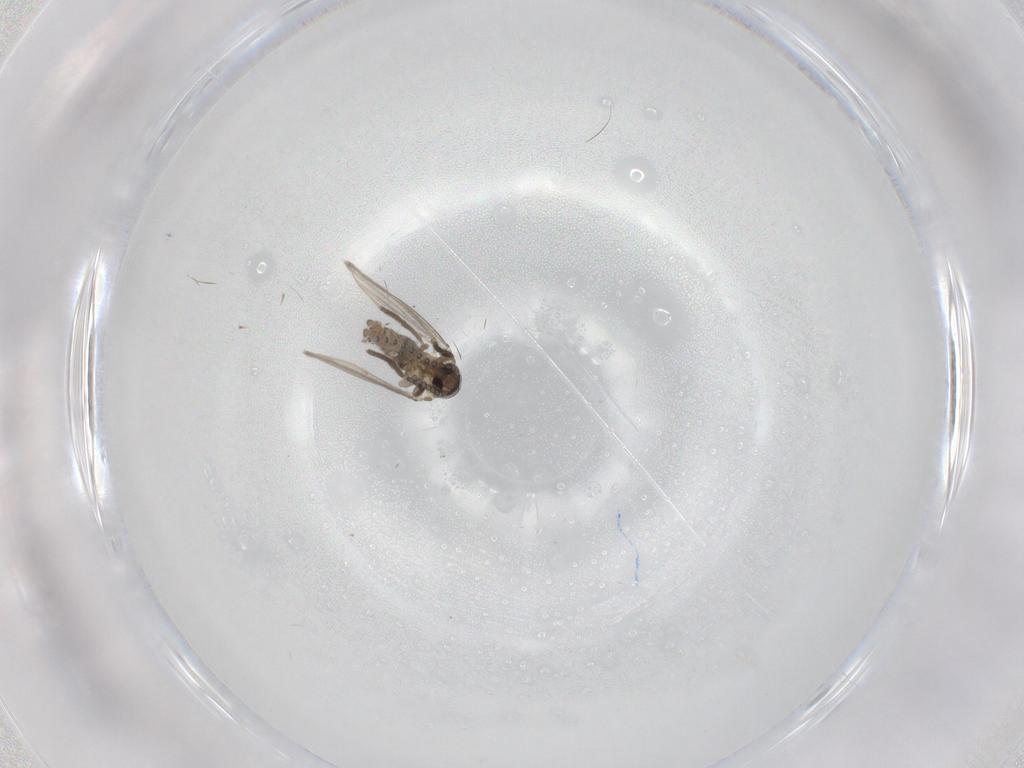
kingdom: Animalia
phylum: Arthropoda
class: Insecta
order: Diptera
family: Psychodidae
